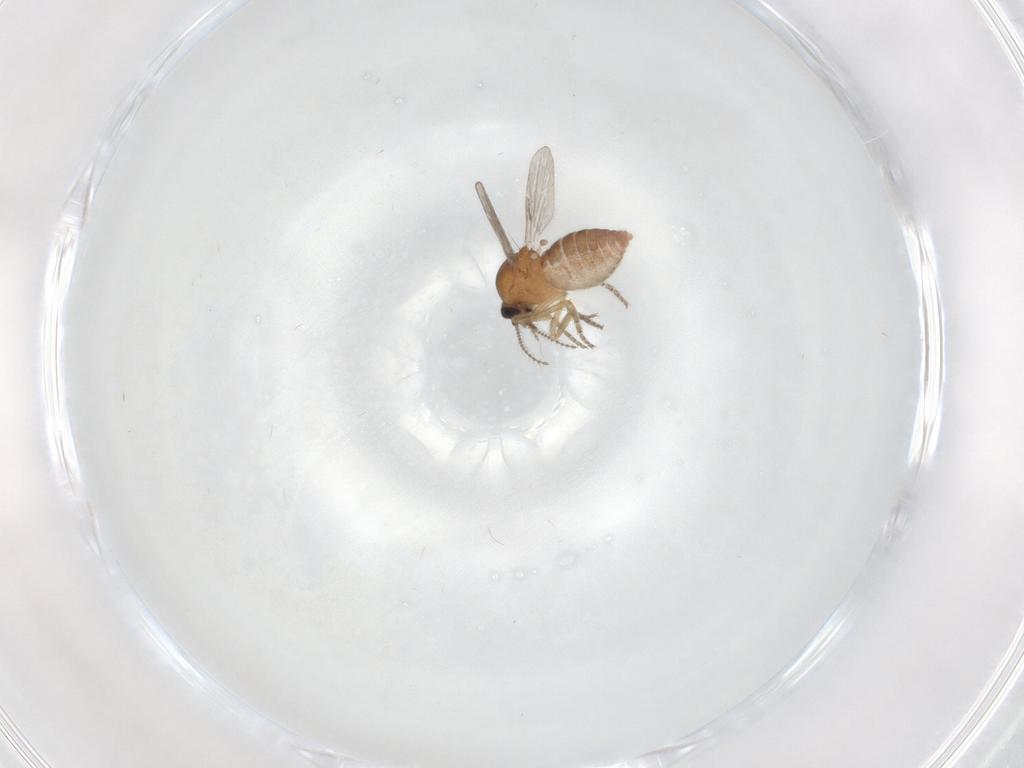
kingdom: Animalia
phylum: Arthropoda
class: Insecta
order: Diptera
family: Ceratopogonidae
